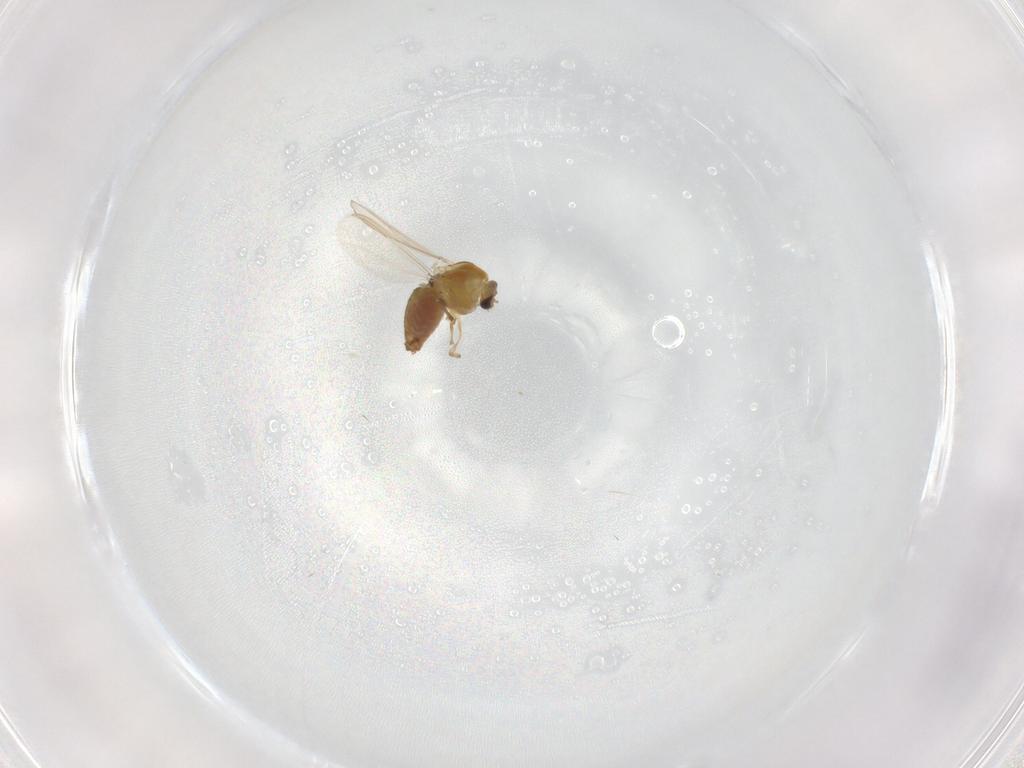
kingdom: Animalia
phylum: Arthropoda
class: Insecta
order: Diptera
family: Chironomidae
